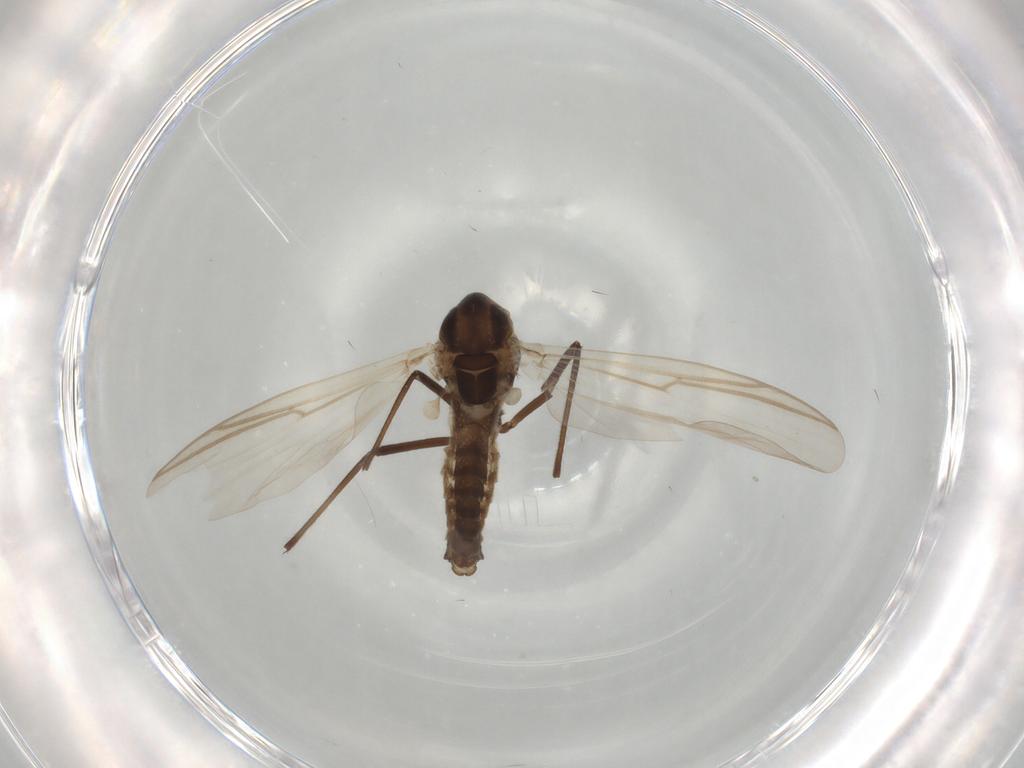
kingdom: Animalia
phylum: Arthropoda
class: Insecta
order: Diptera
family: Chironomidae
